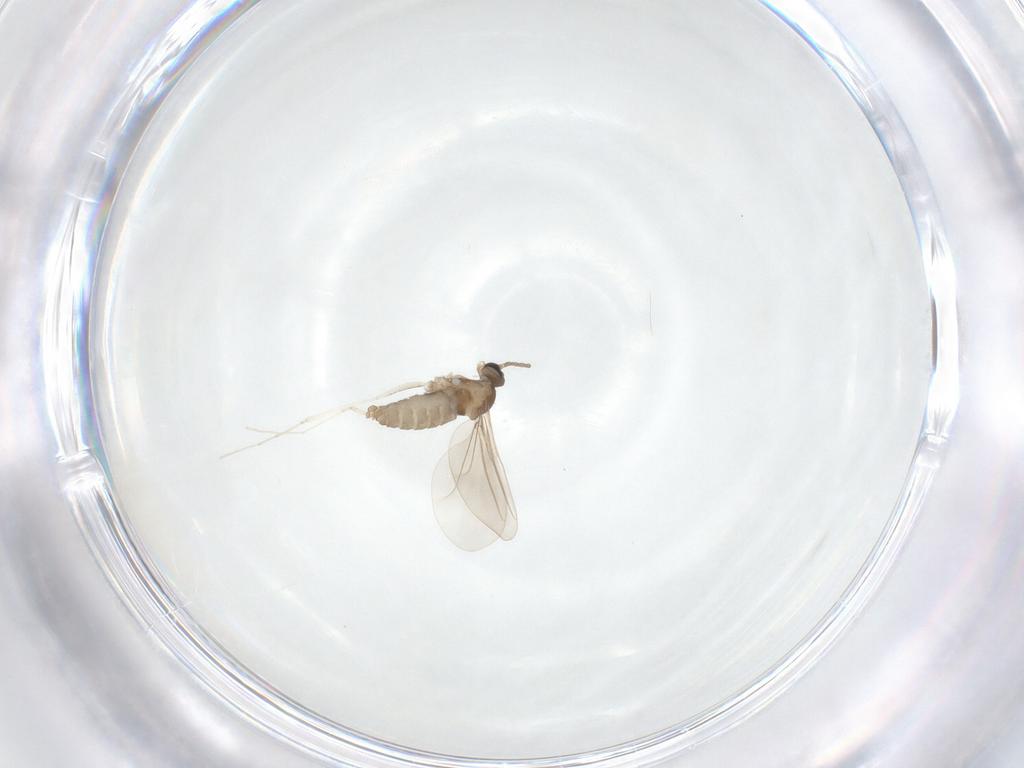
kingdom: Animalia
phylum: Arthropoda
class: Insecta
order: Diptera
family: Cecidomyiidae
